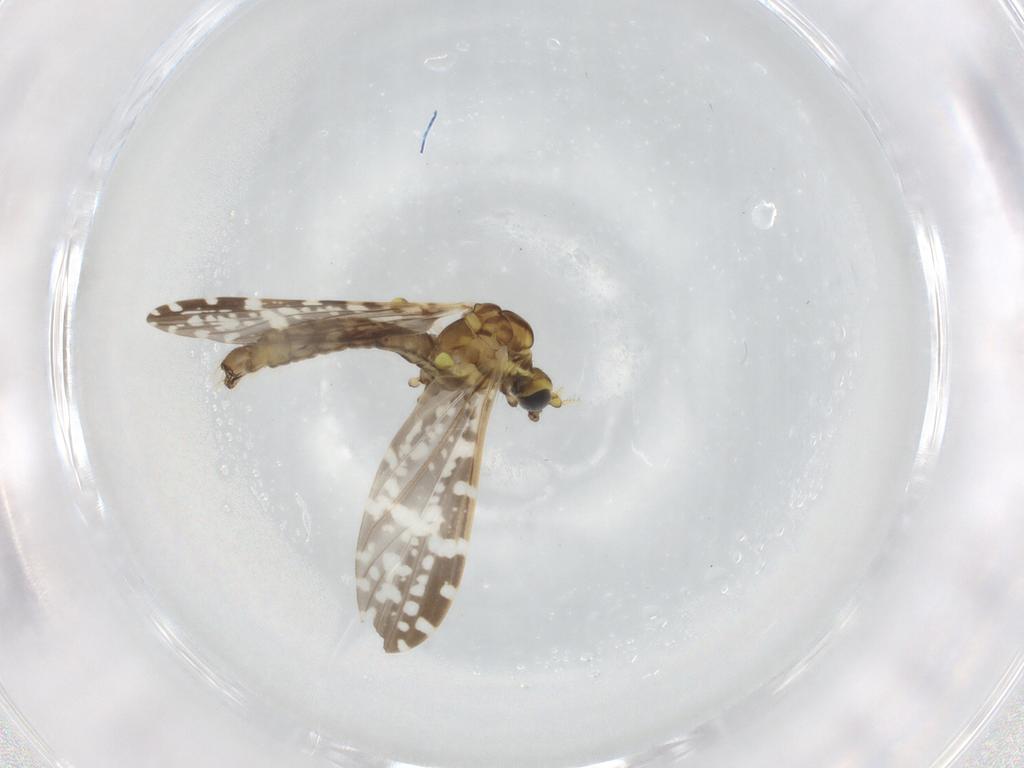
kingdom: Animalia
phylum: Arthropoda
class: Insecta
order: Diptera
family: Limoniidae
